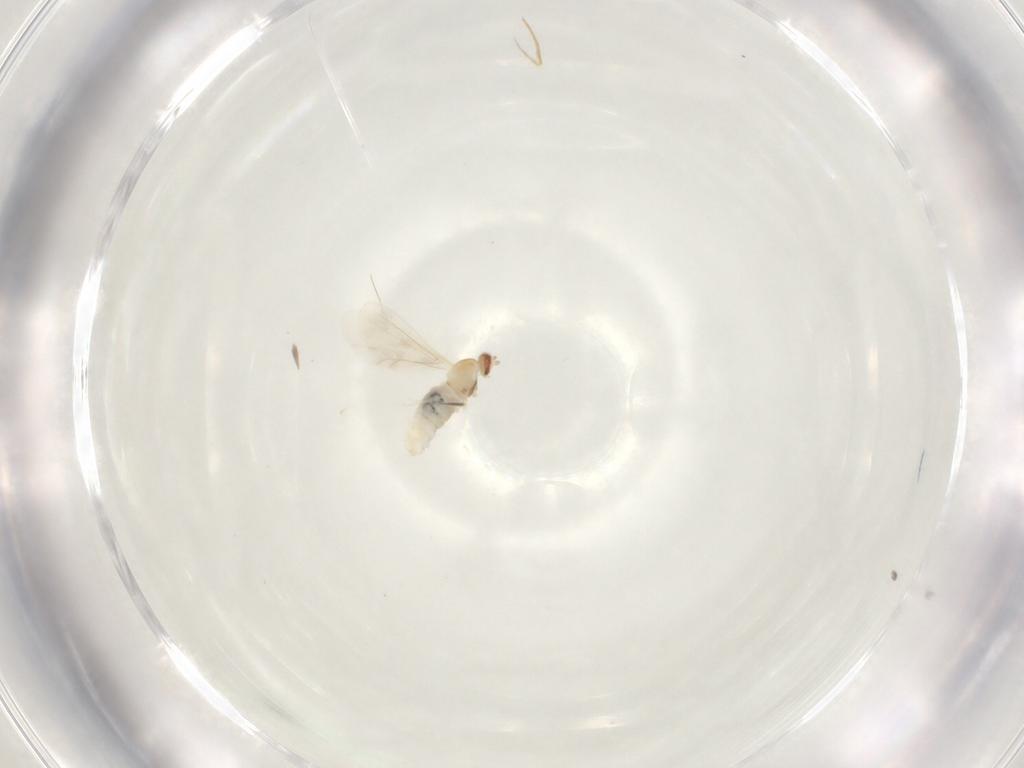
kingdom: Animalia
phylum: Arthropoda
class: Insecta
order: Diptera
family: Cecidomyiidae
